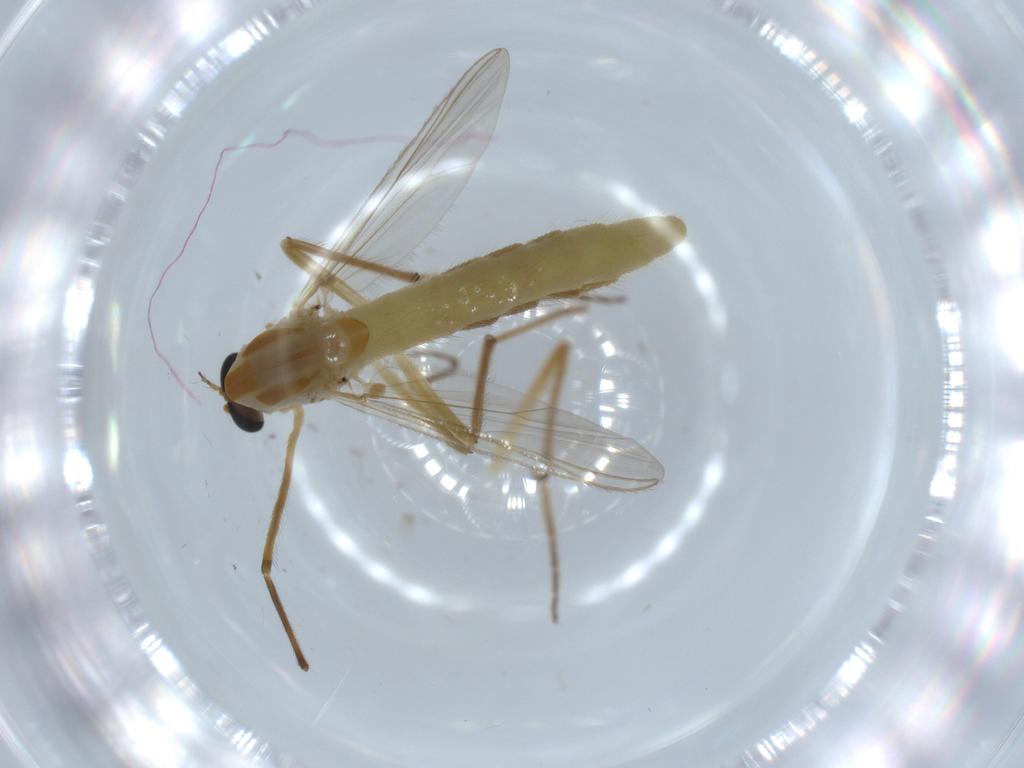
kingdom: Animalia
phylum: Arthropoda
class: Insecta
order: Diptera
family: Chironomidae
